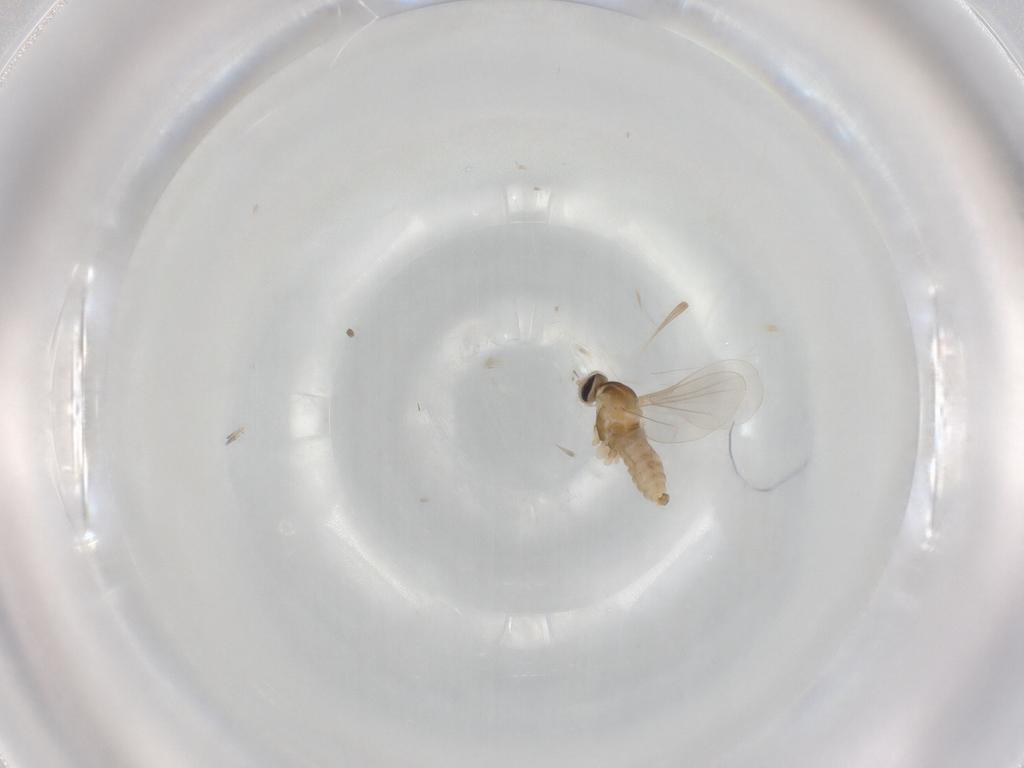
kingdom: Animalia
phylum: Arthropoda
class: Insecta
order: Diptera
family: Cecidomyiidae
